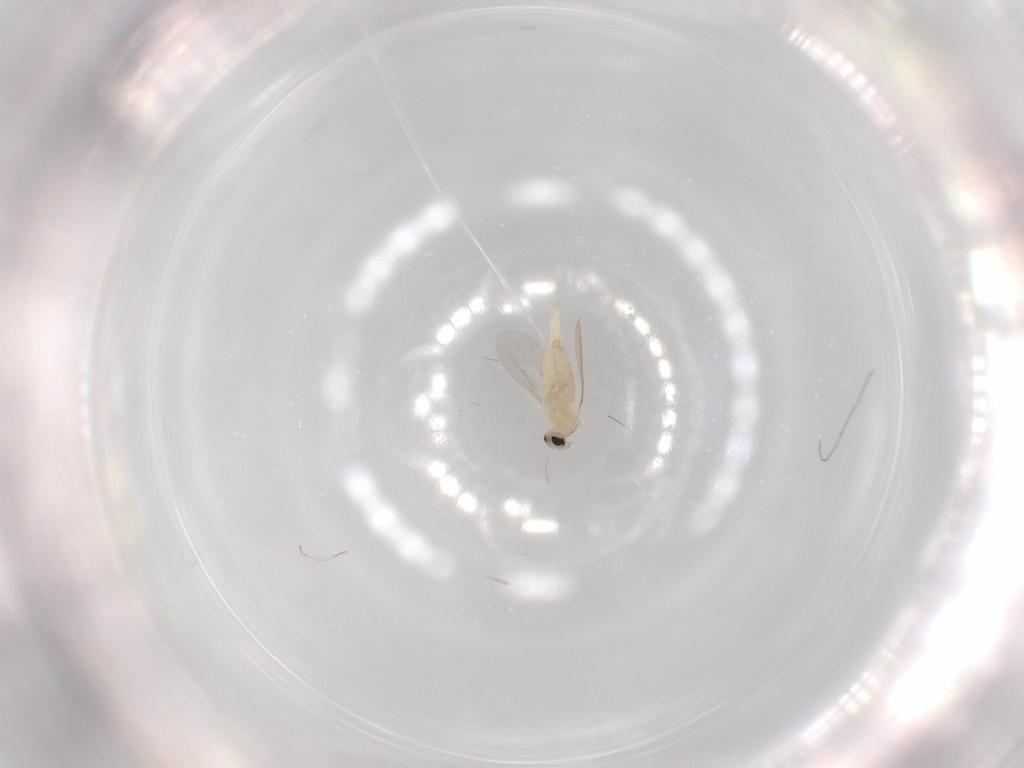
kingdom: Animalia
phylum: Arthropoda
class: Insecta
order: Diptera
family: Cecidomyiidae
